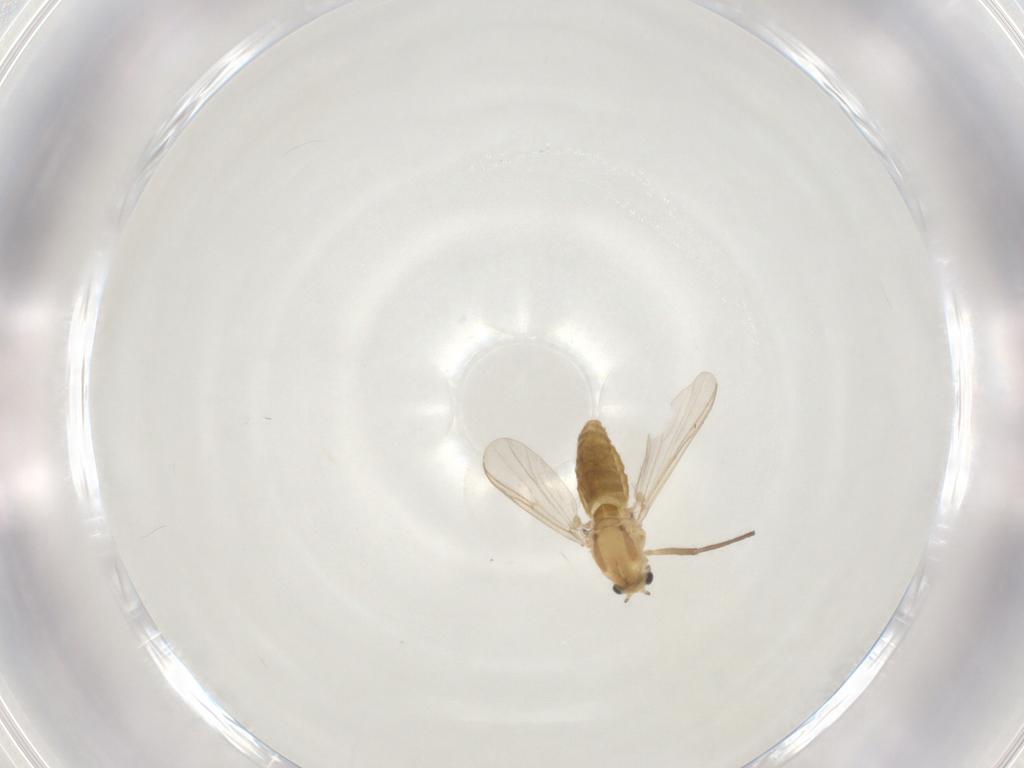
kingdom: Animalia
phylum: Arthropoda
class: Insecta
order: Diptera
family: Chironomidae
